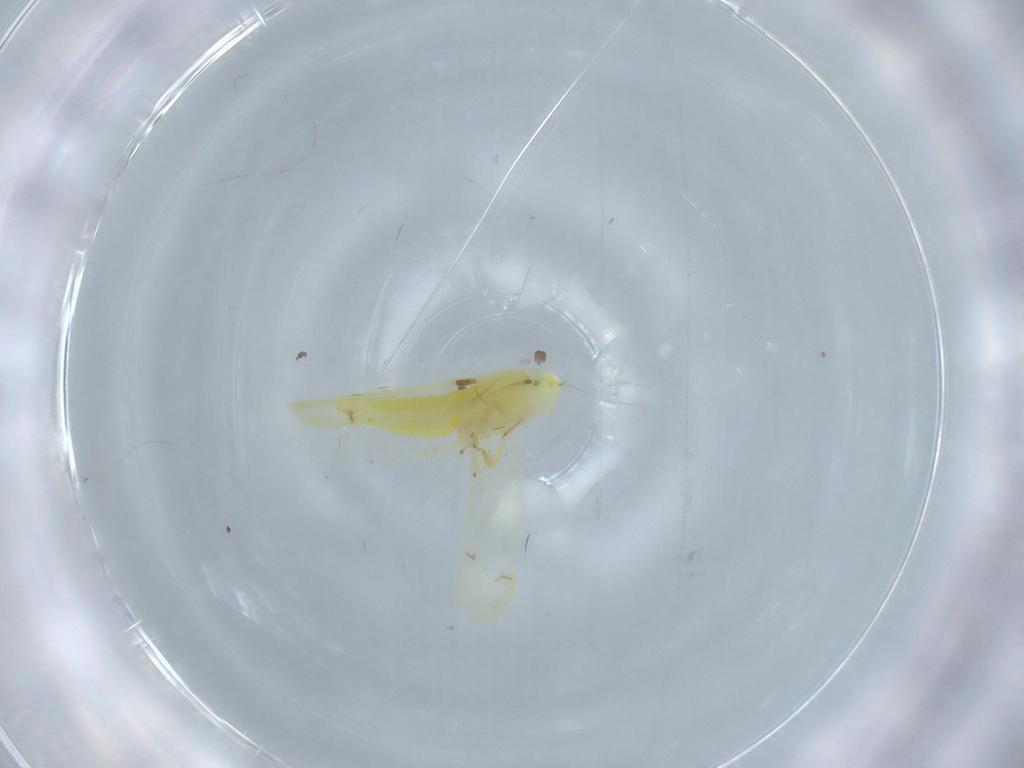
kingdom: Animalia
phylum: Arthropoda
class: Insecta
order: Hemiptera
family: Cicadellidae
